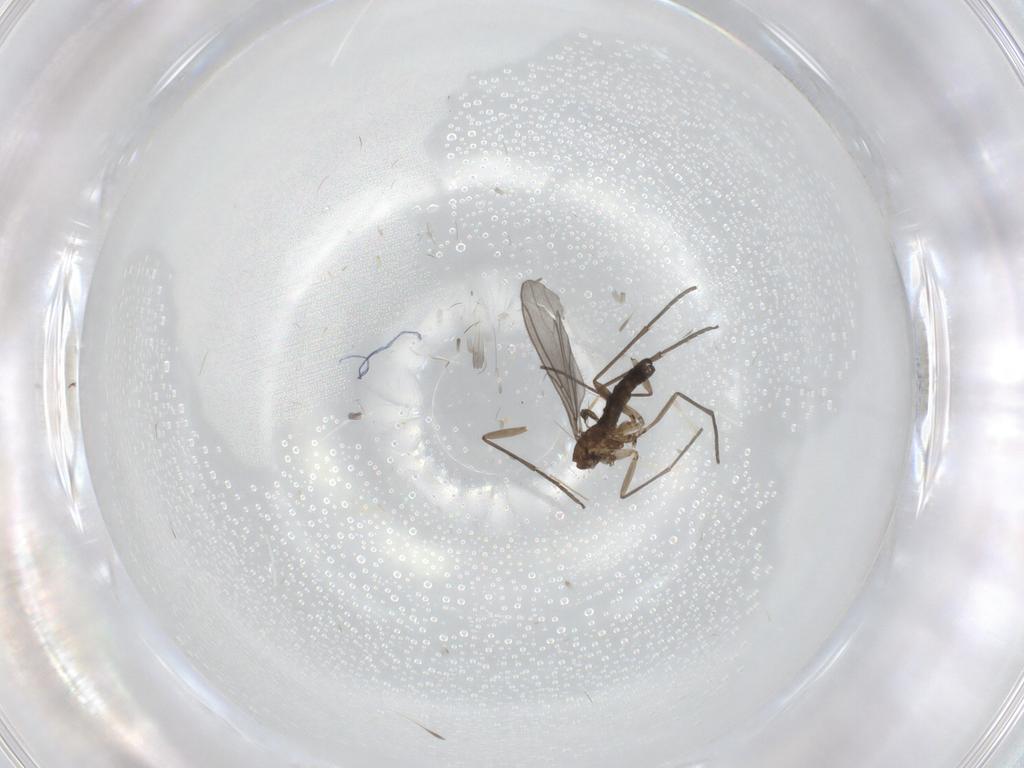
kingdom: Animalia
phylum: Arthropoda
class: Insecta
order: Diptera
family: Sciaridae
